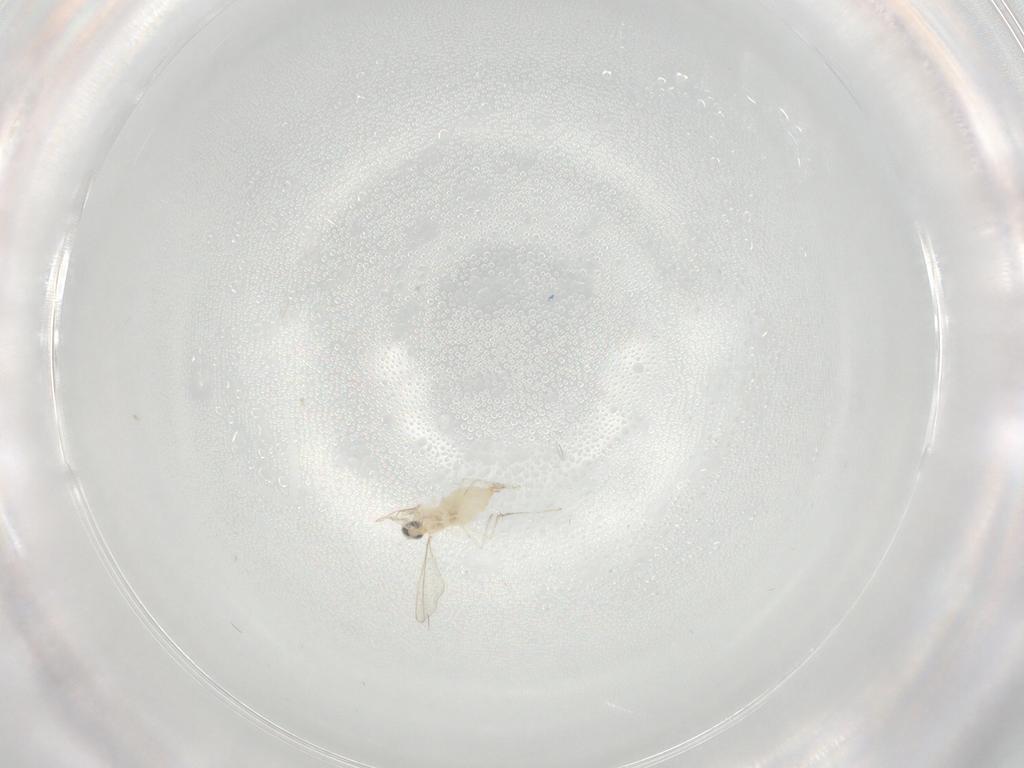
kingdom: Animalia
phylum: Arthropoda
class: Insecta
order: Diptera
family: Cecidomyiidae
